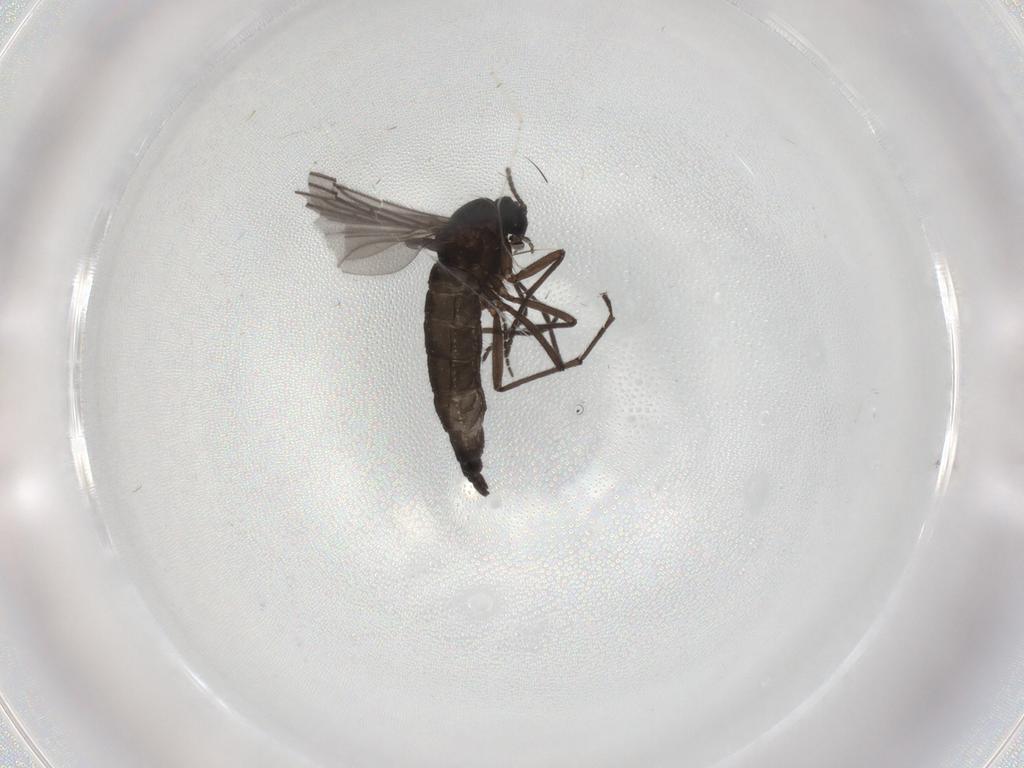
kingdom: Animalia
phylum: Arthropoda
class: Insecta
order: Diptera
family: Sciaridae
